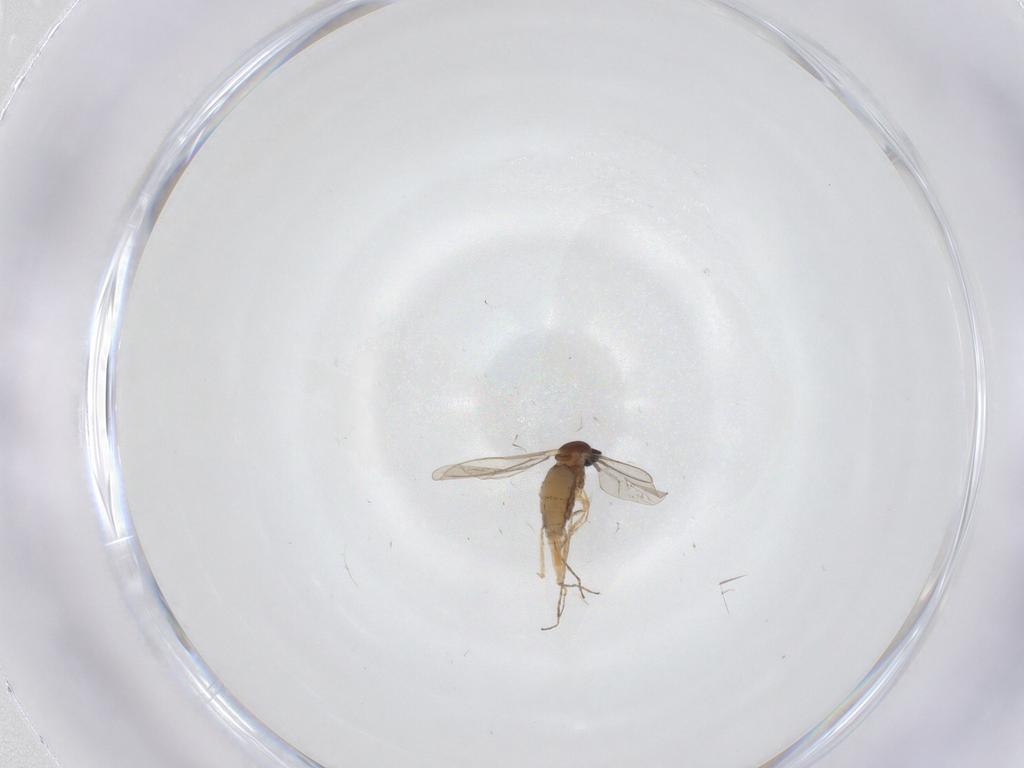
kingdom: Animalia
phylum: Arthropoda
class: Insecta
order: Diptera
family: Cecidomyiidae
